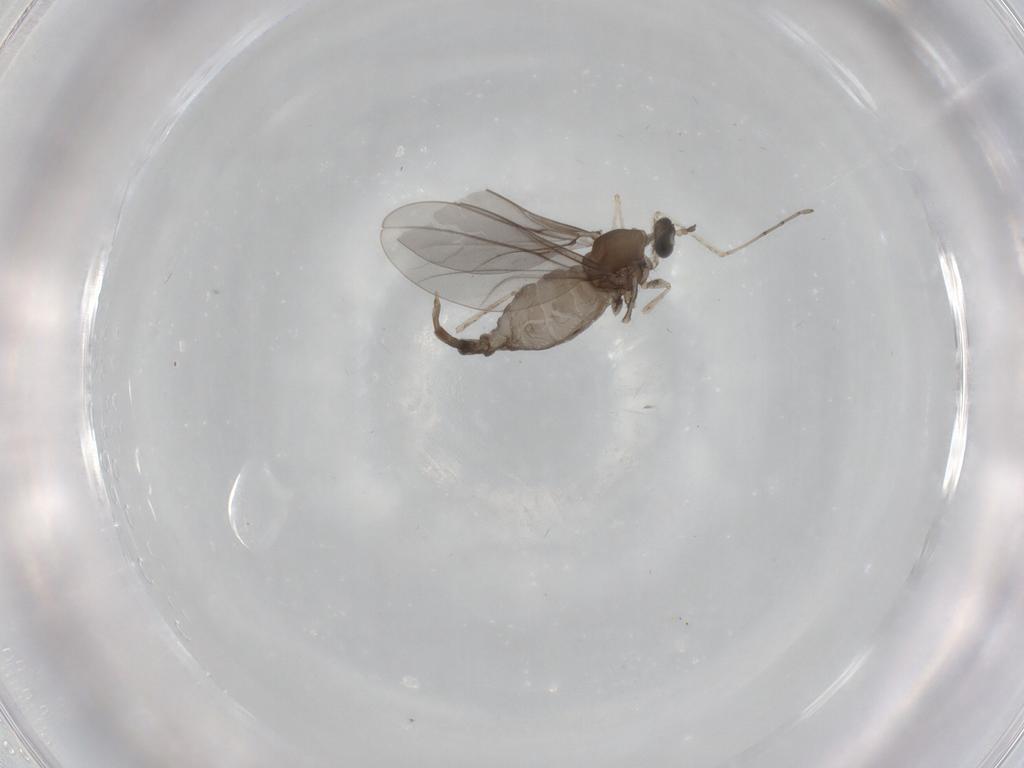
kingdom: Animalia
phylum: Arthropoda
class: Insecta
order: Diptera
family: Cecidomyiidae
